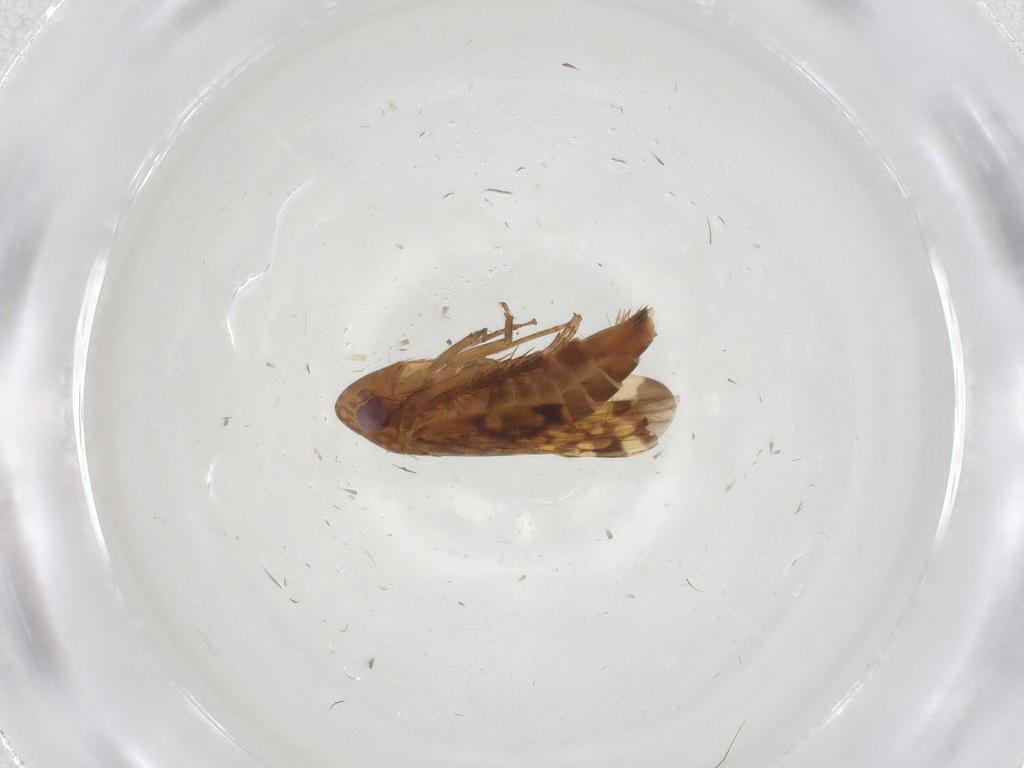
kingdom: Animalia
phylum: Arthropoda
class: Insecta
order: Hemiptera
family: Cicadellidae
